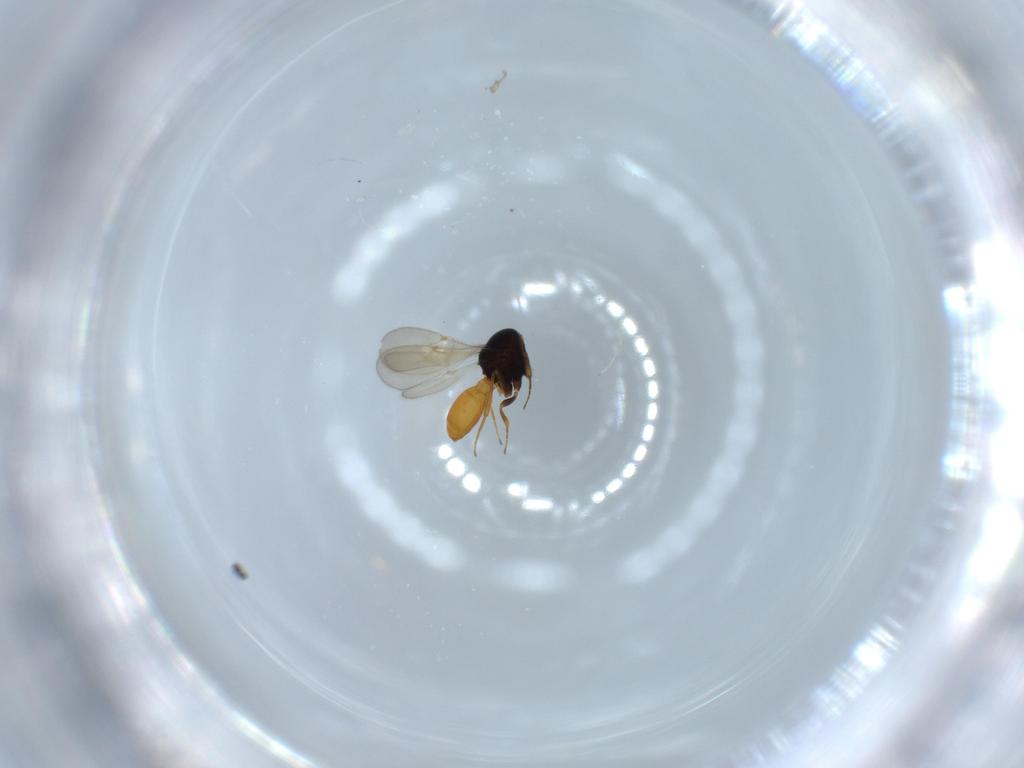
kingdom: Animalia
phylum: Arthropoda
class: Insecta
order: Hymenoptera
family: Scelionidae
